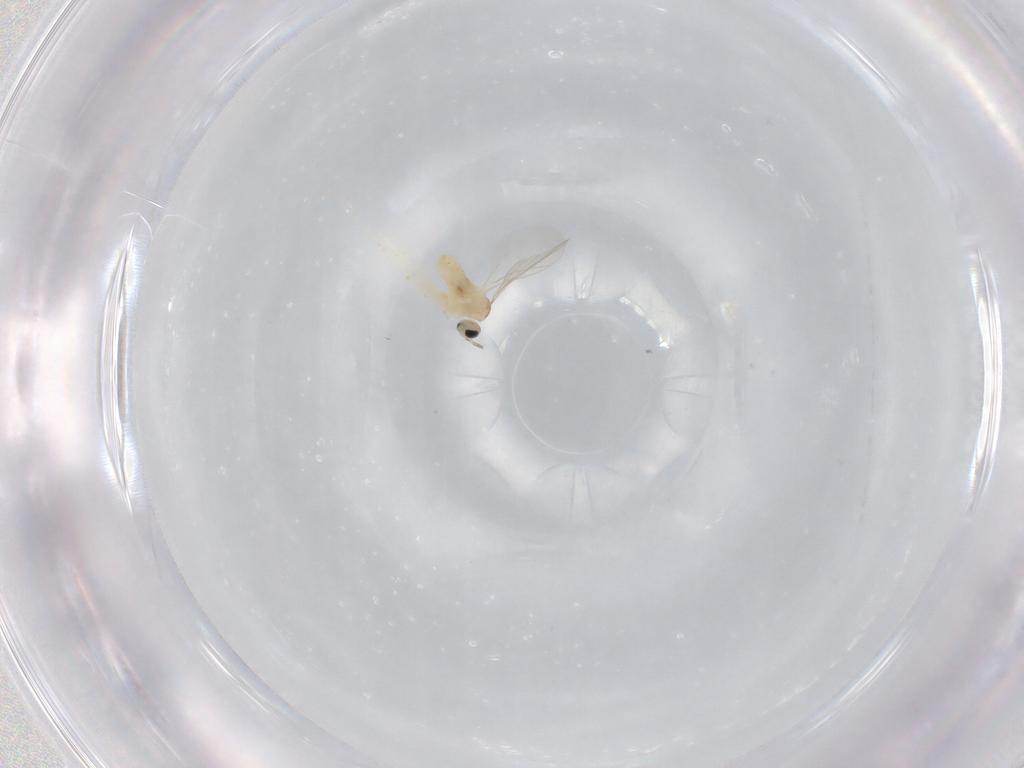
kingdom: Animalia
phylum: Arthropoda
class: Insecta
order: Diptera
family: Cecidomyiidae
